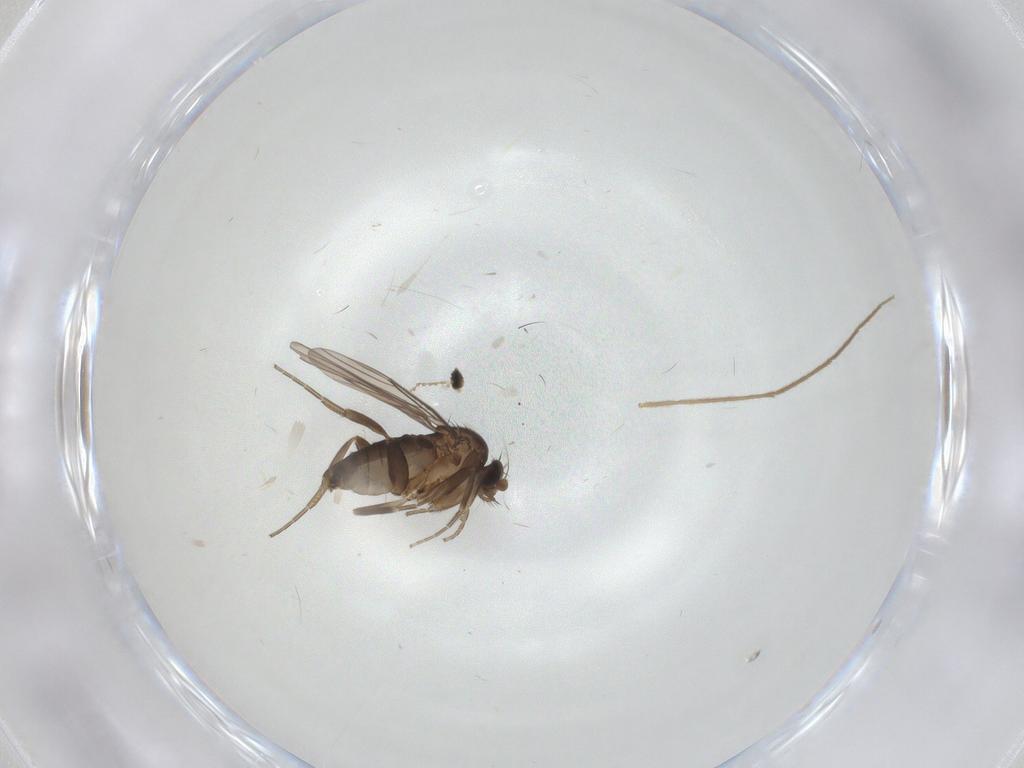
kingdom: Animalia
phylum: Arthropoda
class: Insecta
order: Diptera
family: Phoridae
